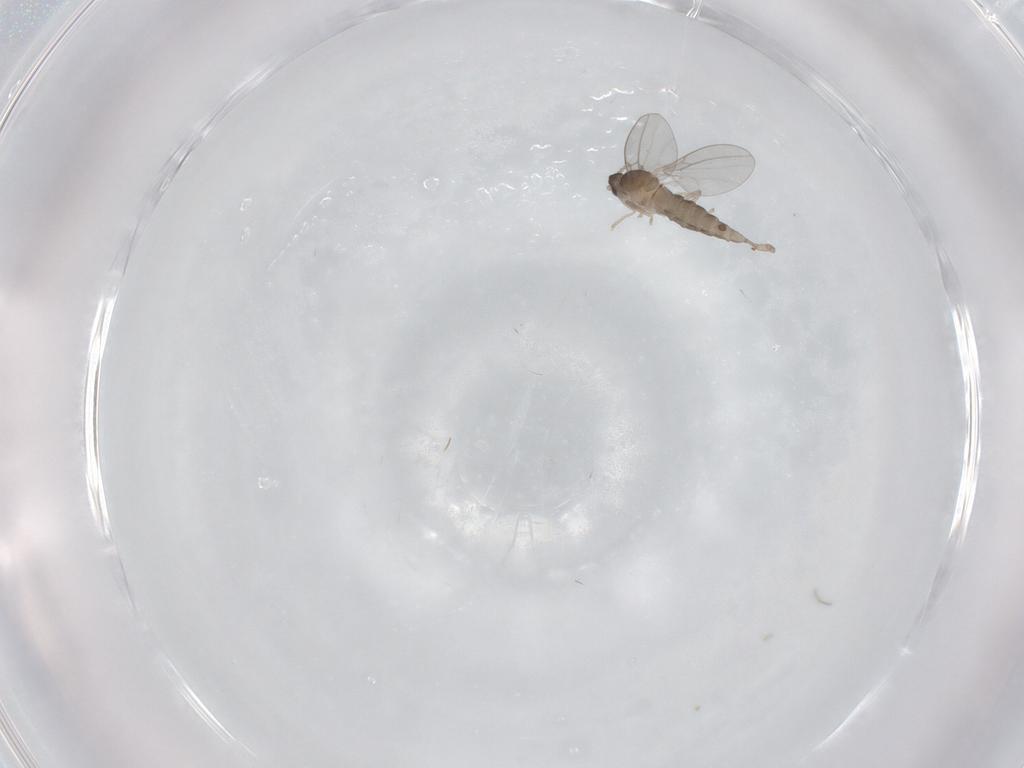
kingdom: Animalia
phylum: Arthropoda
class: Insecta
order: Diptera
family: Cecidomyiidae
